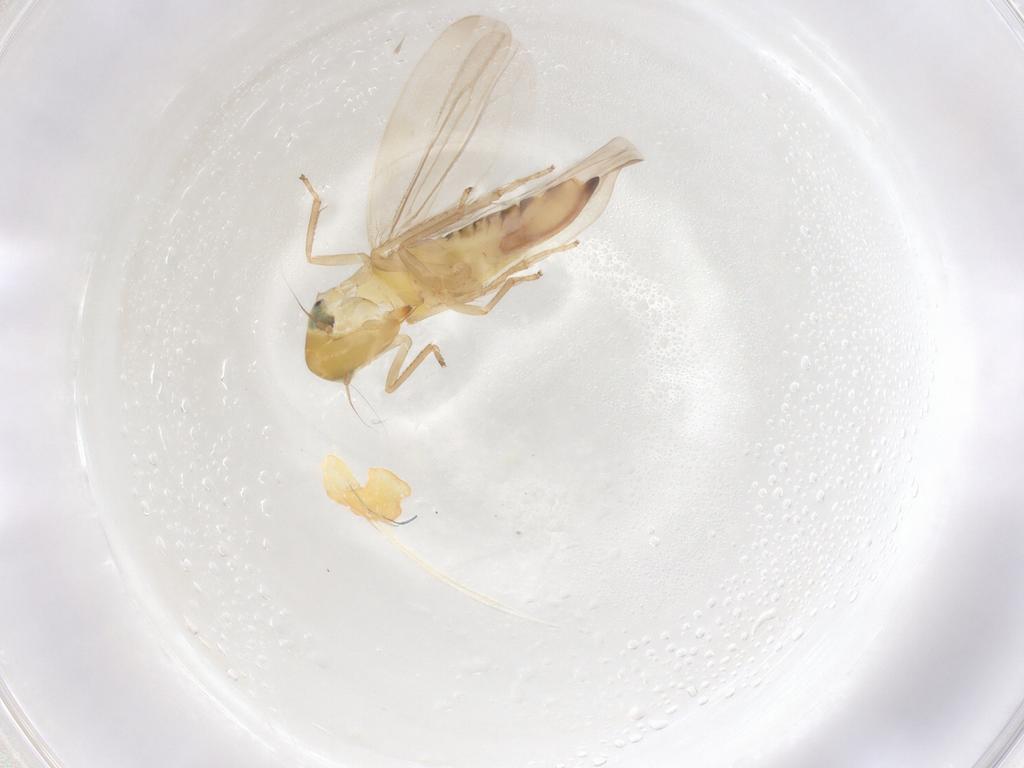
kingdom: Animalia
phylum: Arthropoda
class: Insecta
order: Hemiptera
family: Cicadellidae
